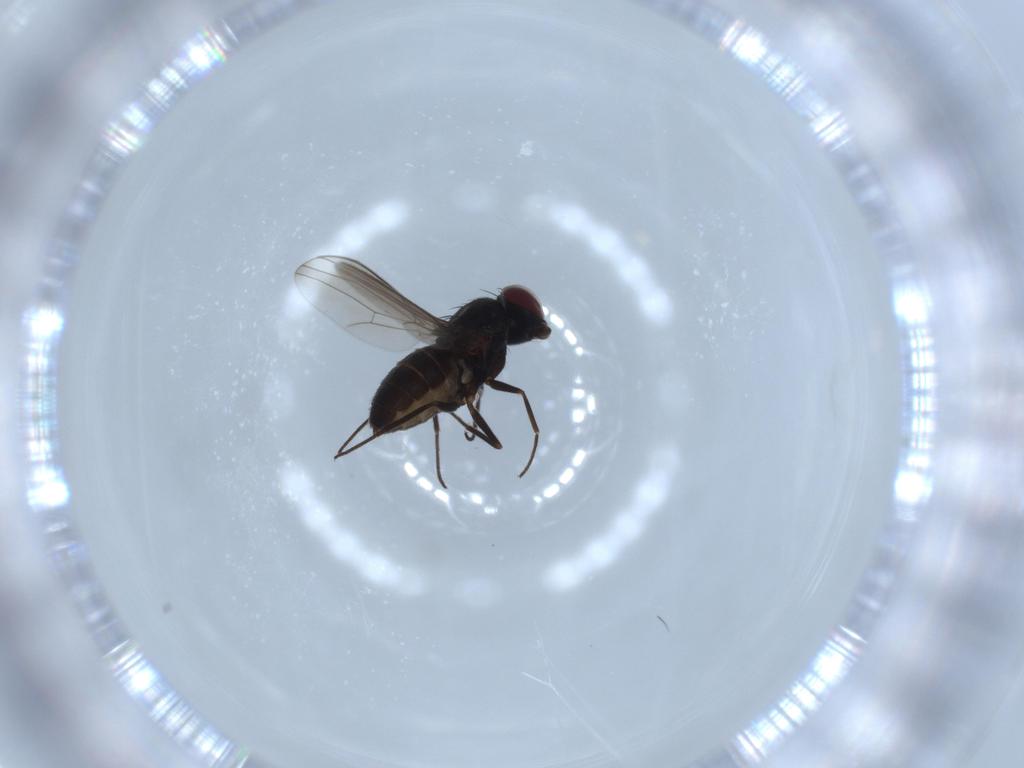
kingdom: Animalia
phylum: Arthropoda
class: Insecta
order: Diptera
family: Dolichopodidae
